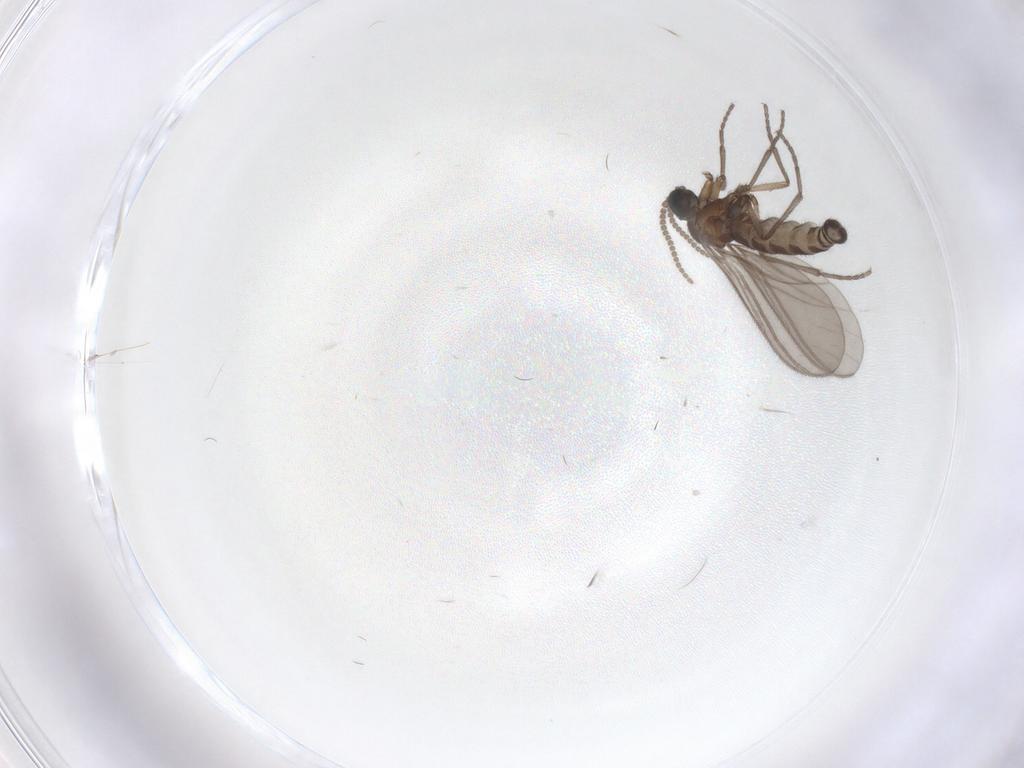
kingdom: Animalia
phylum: Arthropoda
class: Insecta
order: Diptera
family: Sciaridae
